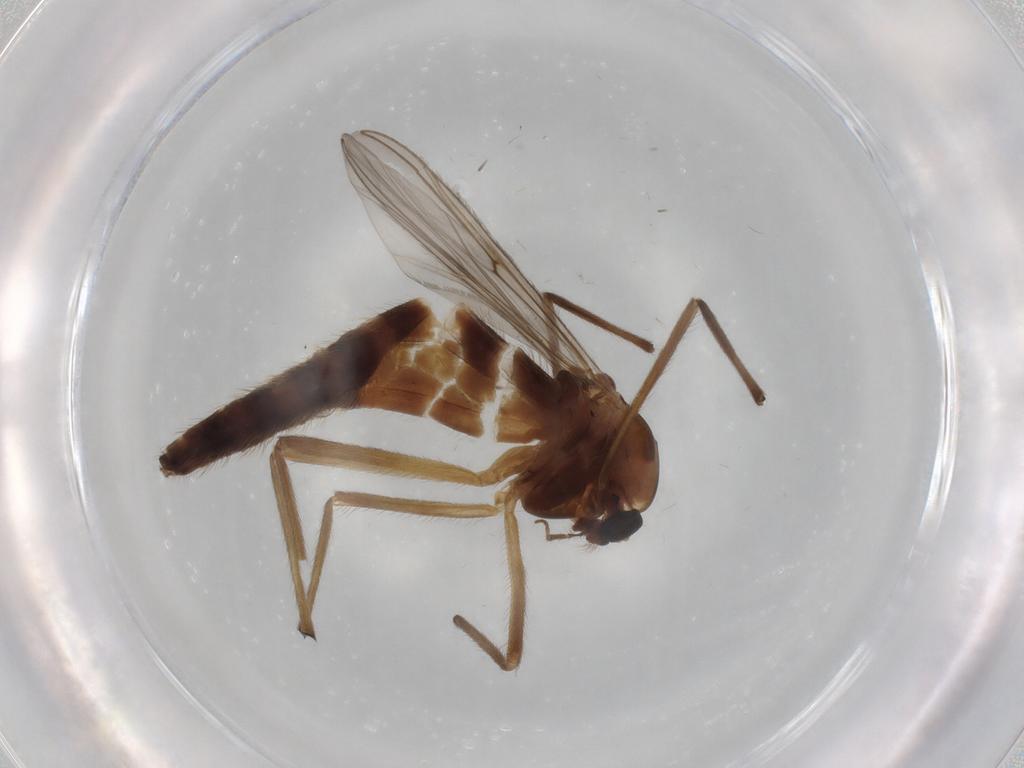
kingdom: Animalia
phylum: Arthropoda
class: Insecta
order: Diptera
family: Chironomidae
